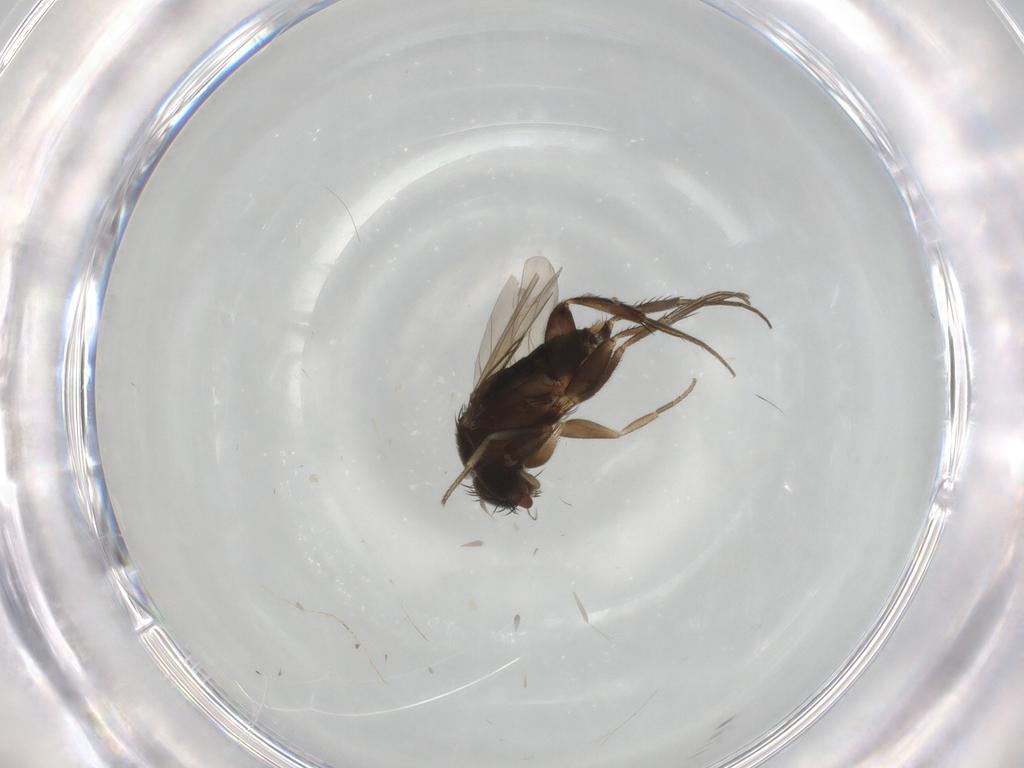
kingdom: Animalia
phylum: Arthropoda
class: Insecta
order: Diptera
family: Phoridae
